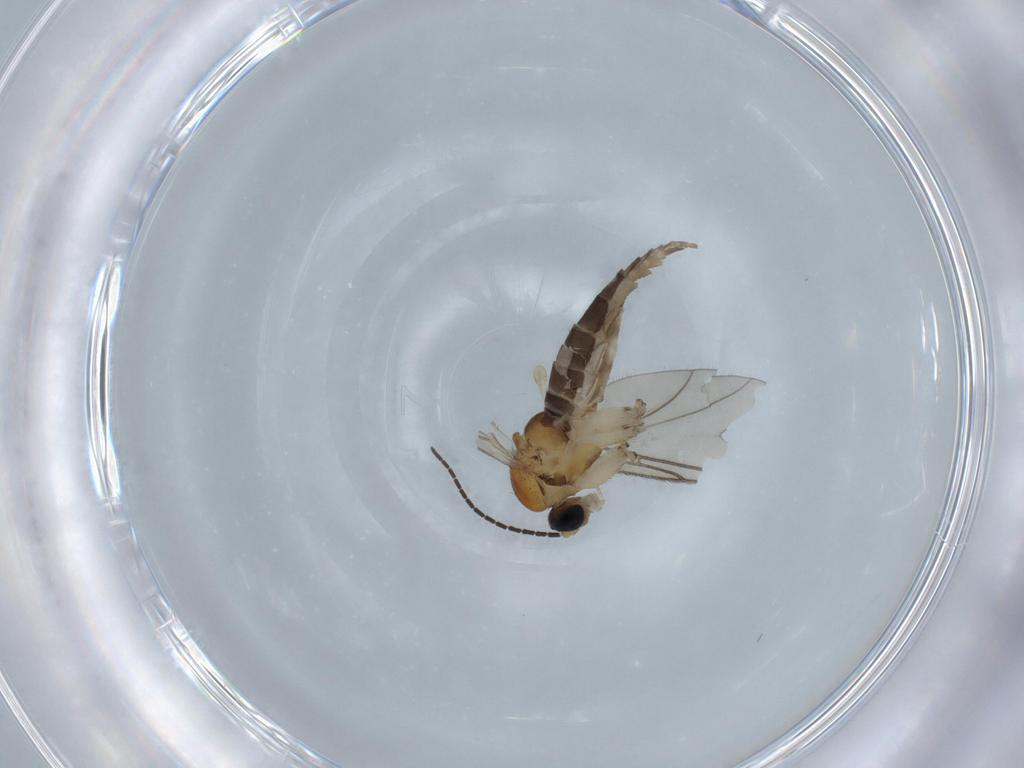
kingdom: Animalia
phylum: Arthropoda
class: Insecta
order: Diptera
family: Sciaridae
